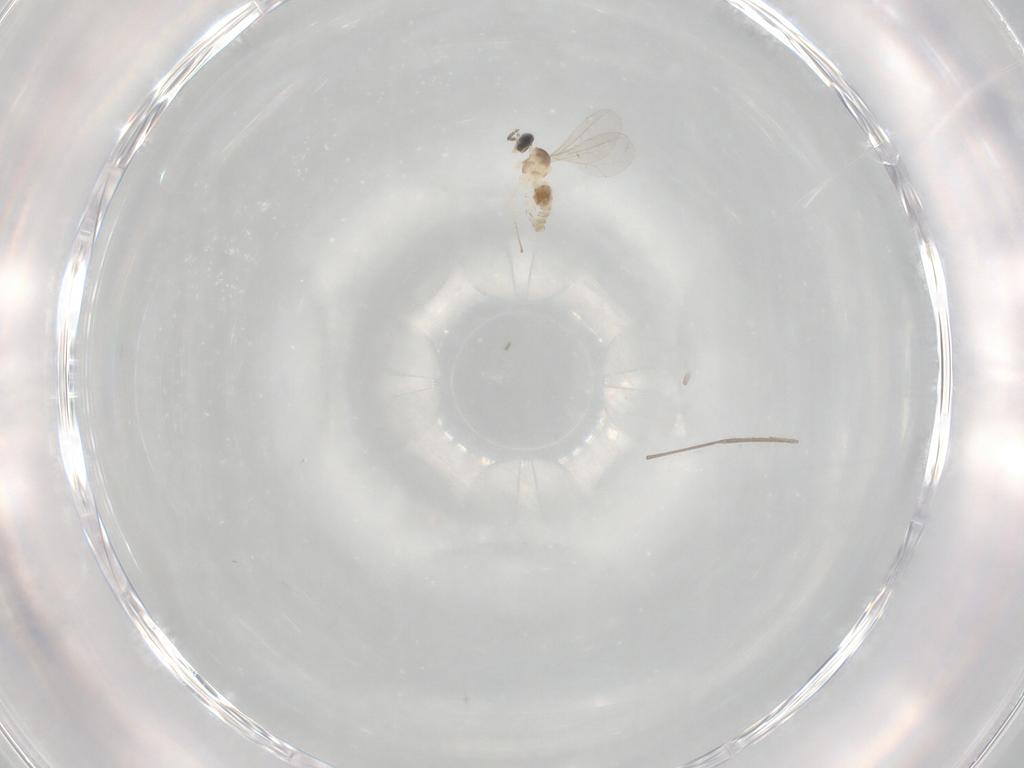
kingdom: Animalia
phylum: Arthropoda
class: Insecta
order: Diptera
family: Cecidomyiidae
